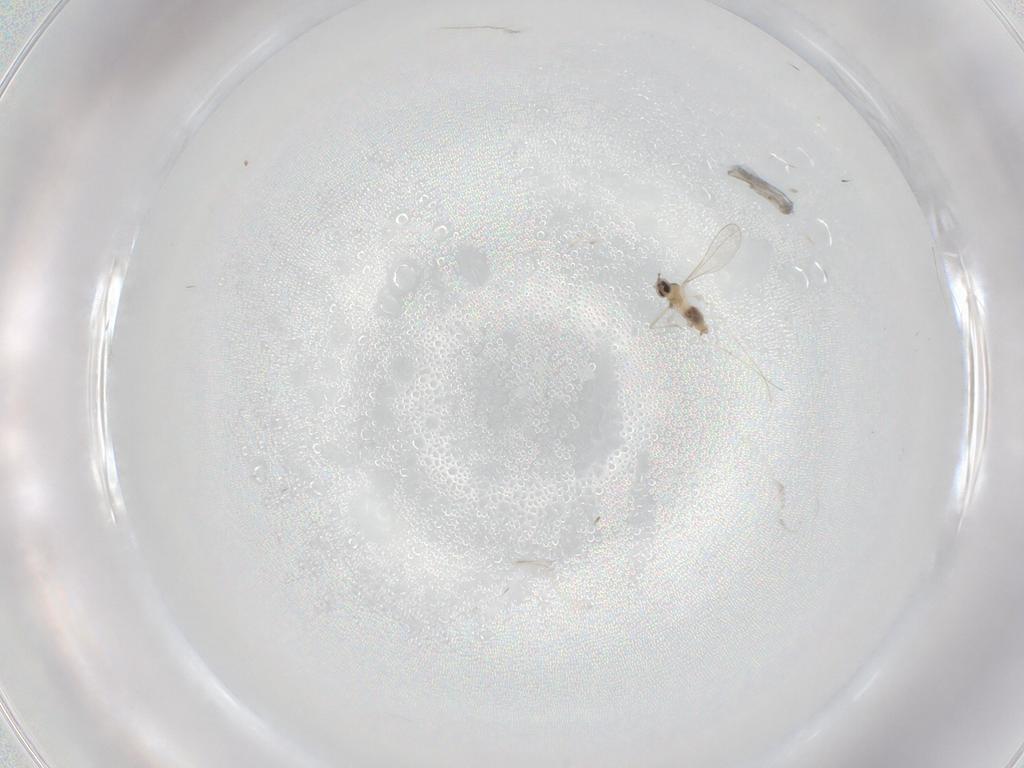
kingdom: Animalia
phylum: Arthropoda
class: Insecta
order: Diptera
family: Cecidomyiidae
